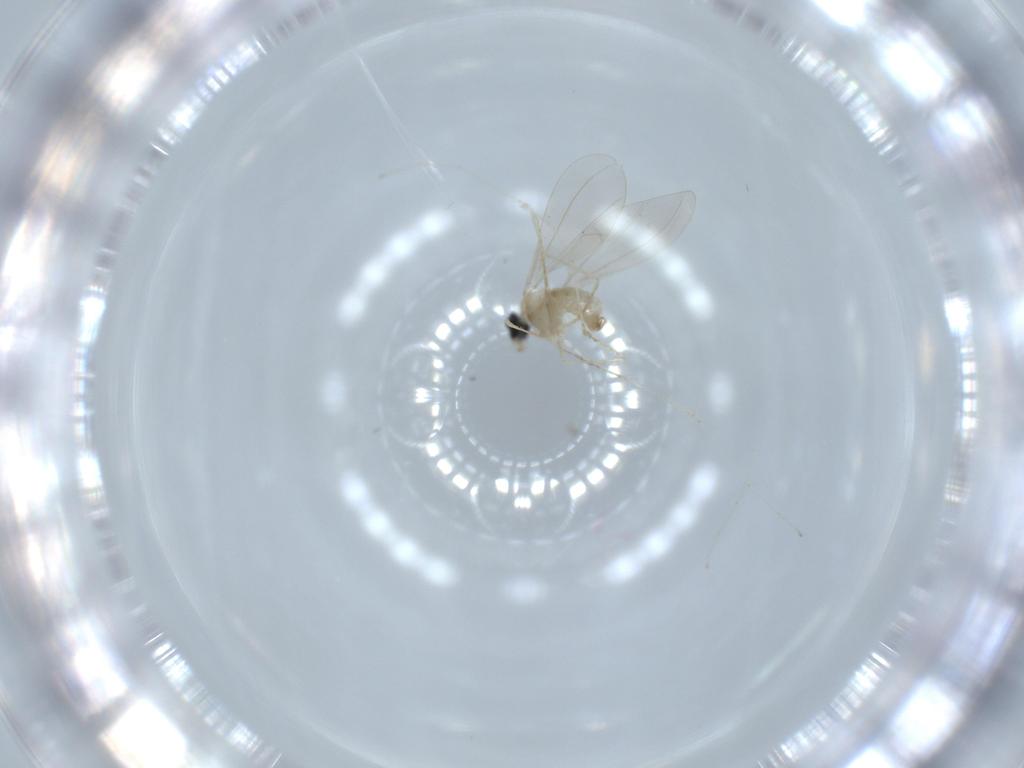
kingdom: Animalia
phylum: Arthropoda
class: Insecta
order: Diptera
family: Cecidomyiidae
